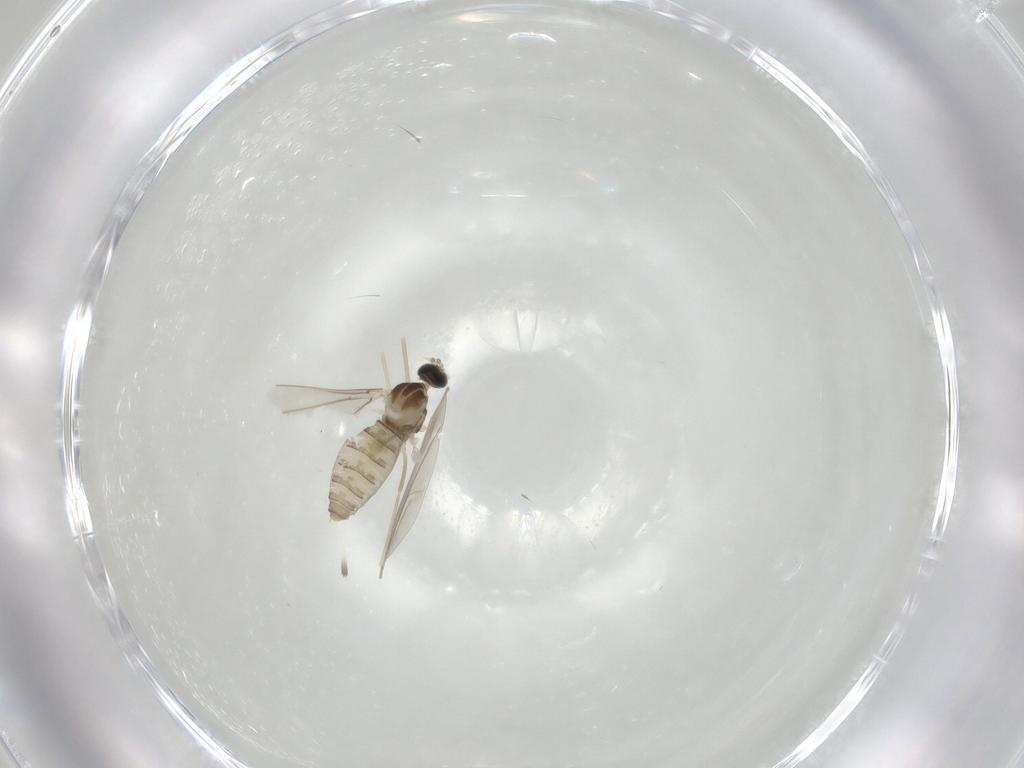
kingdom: Animalia
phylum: Arthropoda
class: Insecta
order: Diptera
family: Cecidomyiidae
